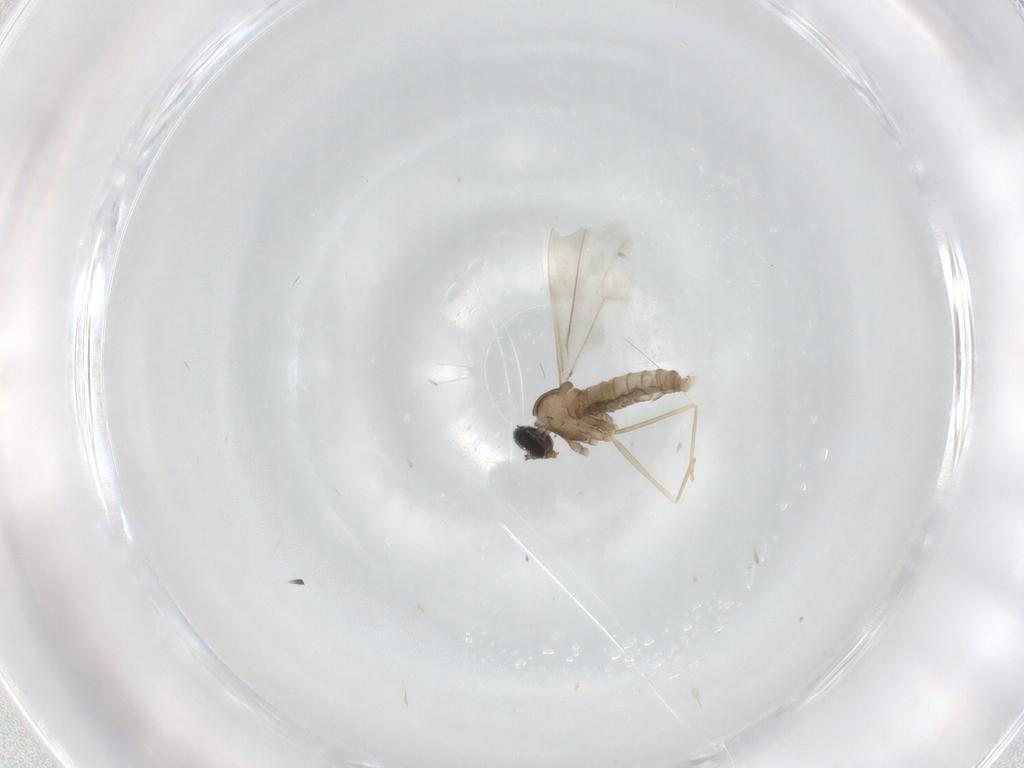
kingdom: Animalia
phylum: Arthropoda
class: Insecta
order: Diptera
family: Cecidomyiidae
